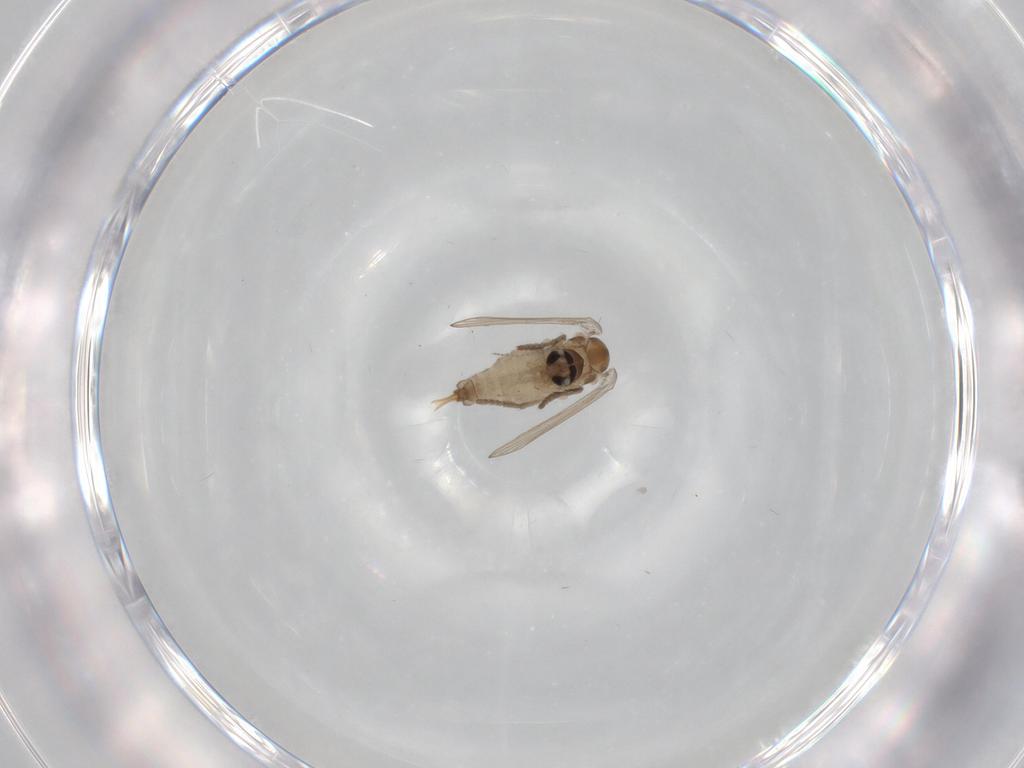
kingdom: Animalia
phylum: Arthropoda
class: Insecta
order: Diptera
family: Psychodidae
